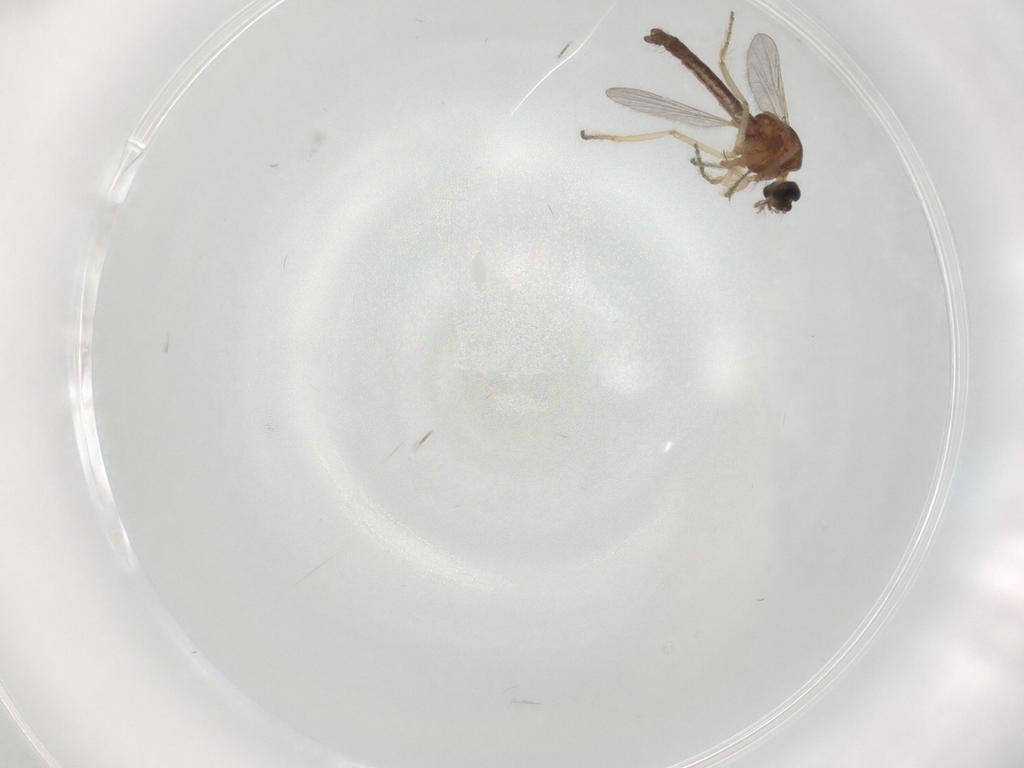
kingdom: Animalia
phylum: Arthropoda
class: Insecta
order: Diptera
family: Ceratopogonidae
